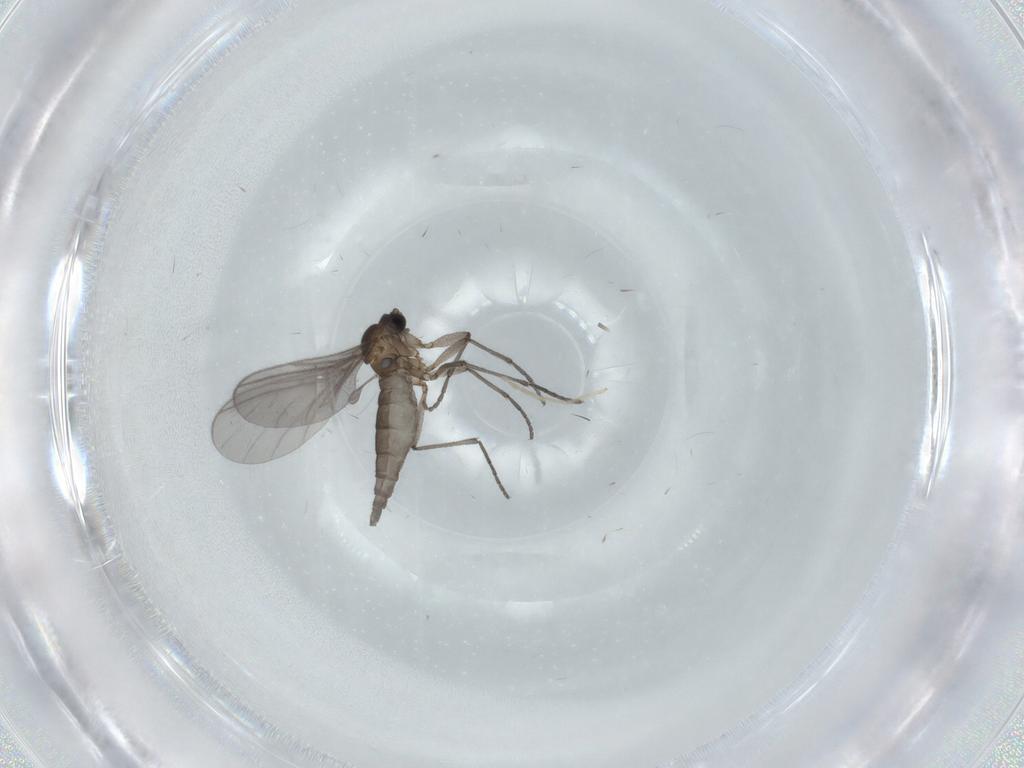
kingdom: Animalia
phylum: Arthropoda
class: Insecta
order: Diptera
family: Sciaridae
